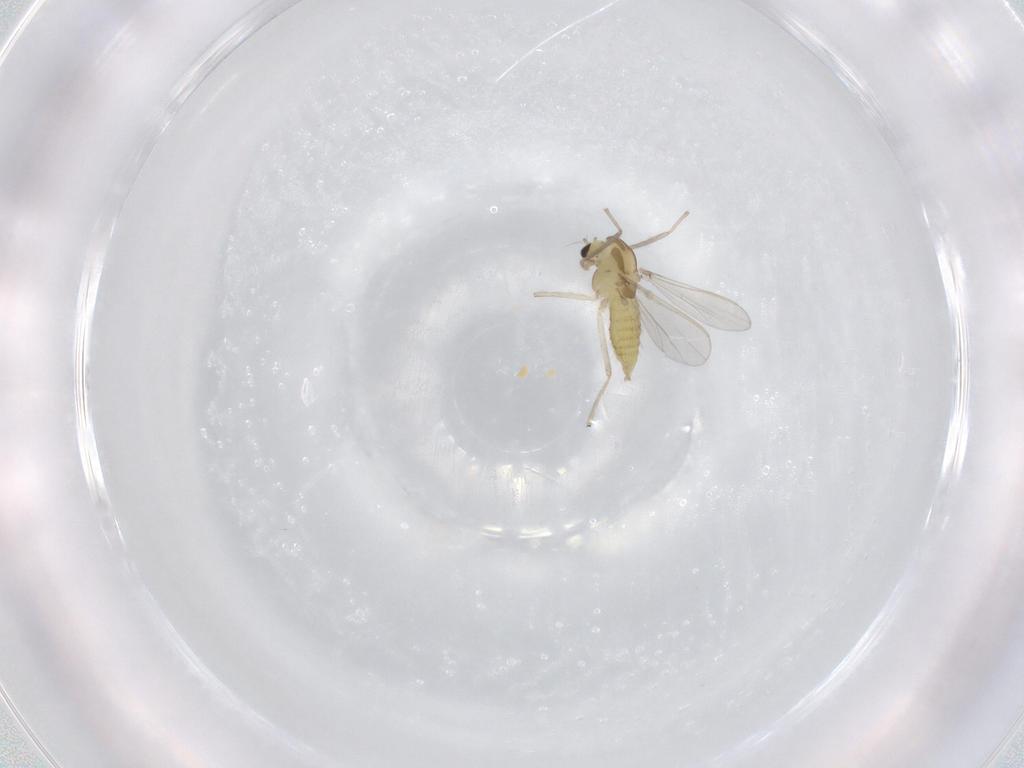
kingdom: Animalia
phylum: Arthropoda
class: Insecta
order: Diptera
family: Chironomidae
